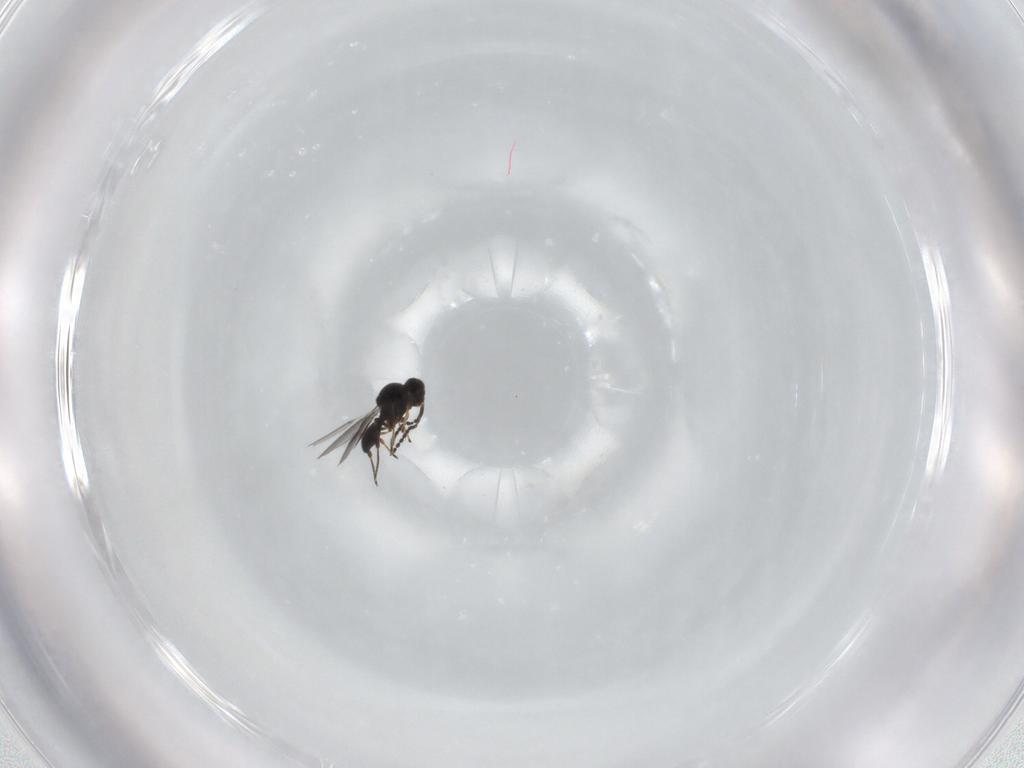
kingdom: Animalia
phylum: Arthropoda
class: Insecta
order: Hymenoptera
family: Platygastridae
